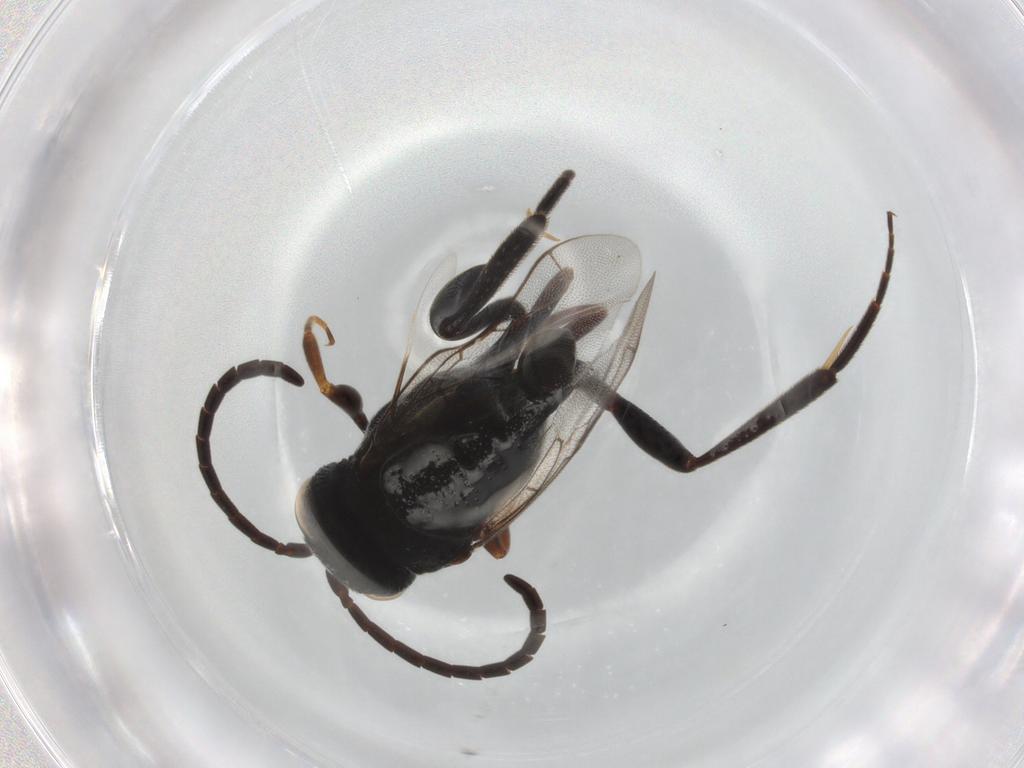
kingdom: Animalia
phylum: Arthropoda
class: Insecta
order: Hymenoptera
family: Evaniidae
